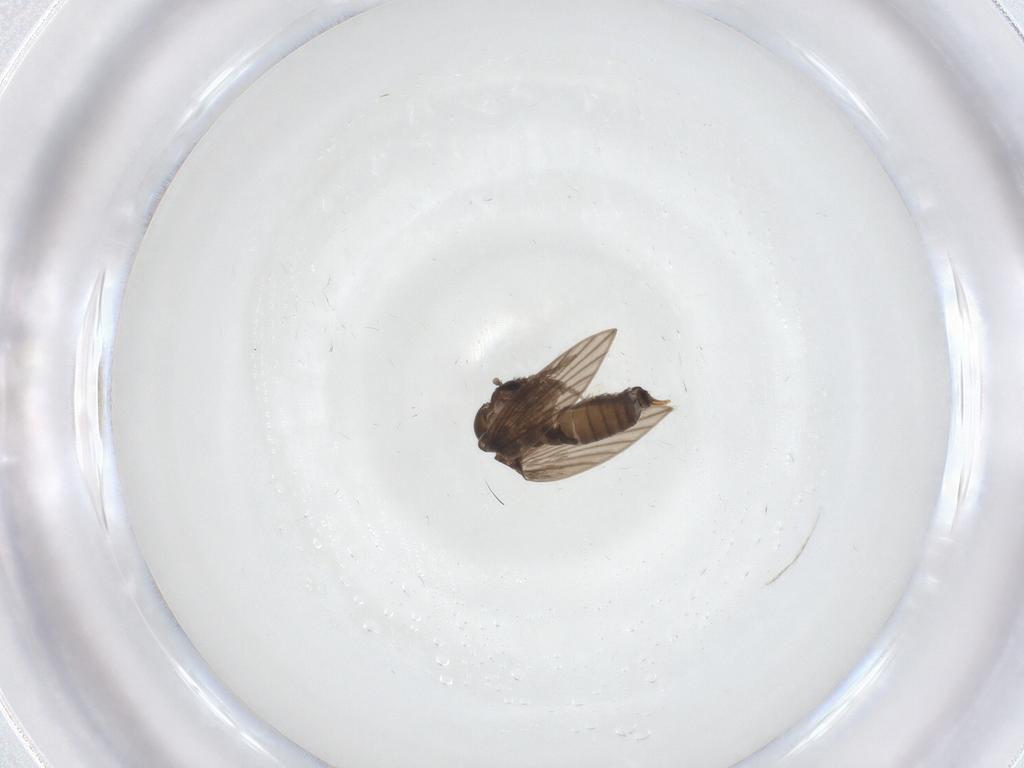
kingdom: Animalia
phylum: Arthropoda
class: Insecta
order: Diptera
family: Psychodidae
